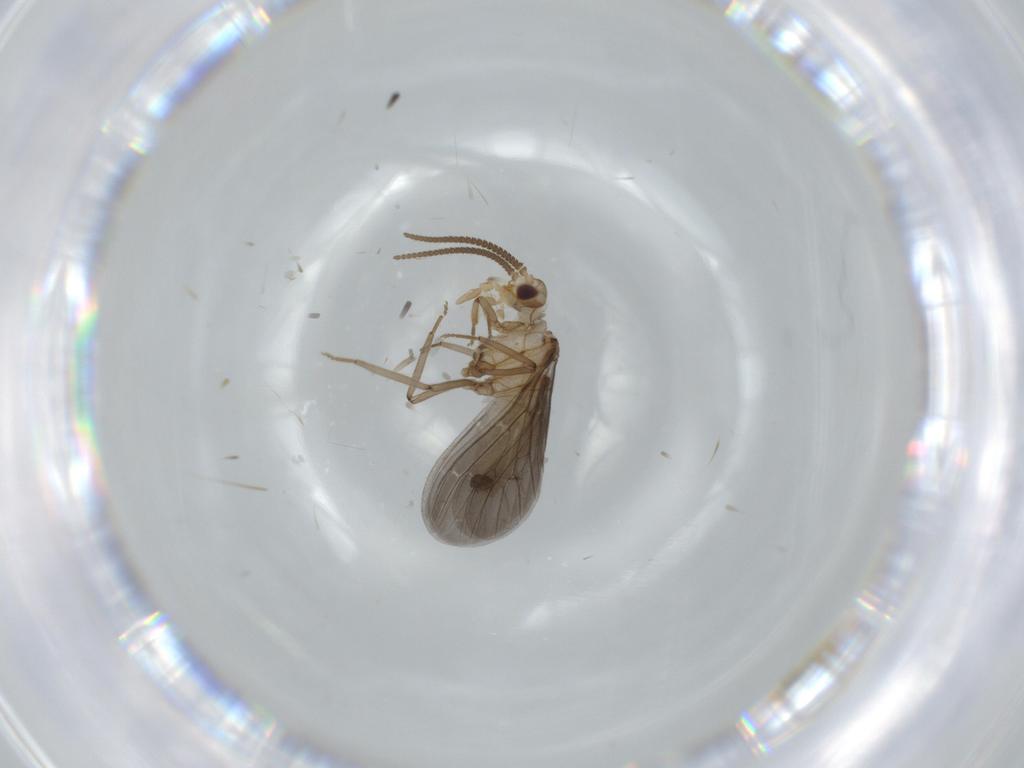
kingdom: Animalia
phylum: Arthropoda
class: Insecta
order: Neuroptera
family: Coniopterygidae
